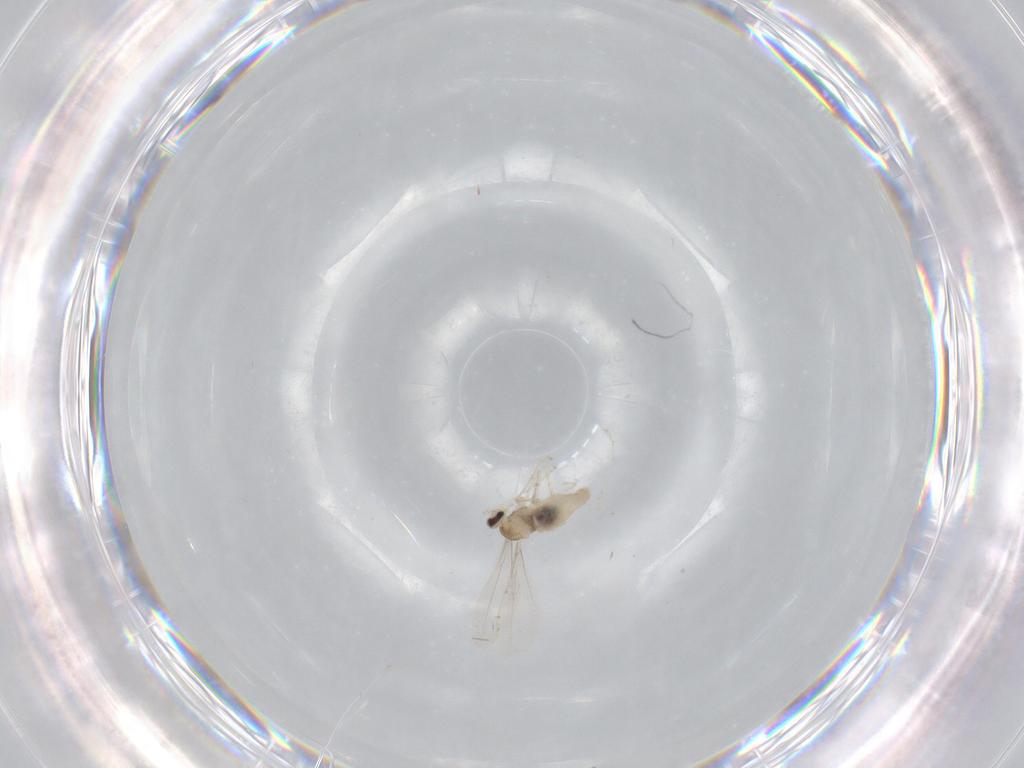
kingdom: Animalia
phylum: Arthropoda
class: Insecta
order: Diptera
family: Cecidomyiidae
